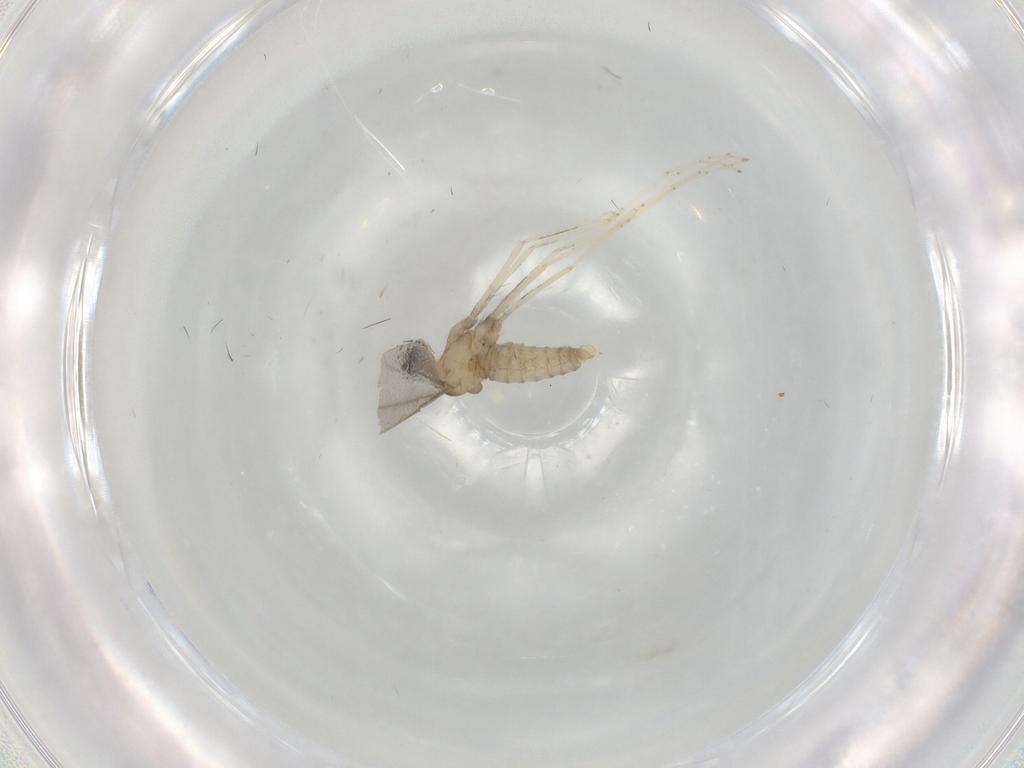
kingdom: Animalia
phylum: Arthropoda
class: Insecta
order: Diptera
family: Cecidomyiidae
